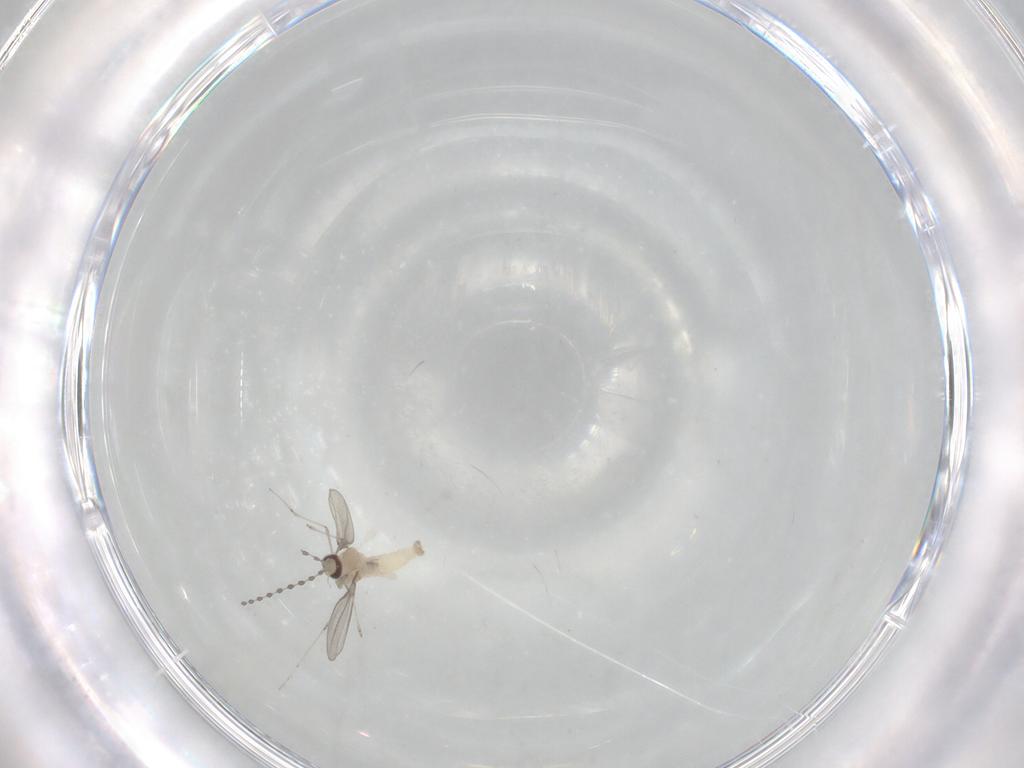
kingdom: Animalia
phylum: Arthropoda
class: Insecta
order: Diptera
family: Cecidomyiidae
